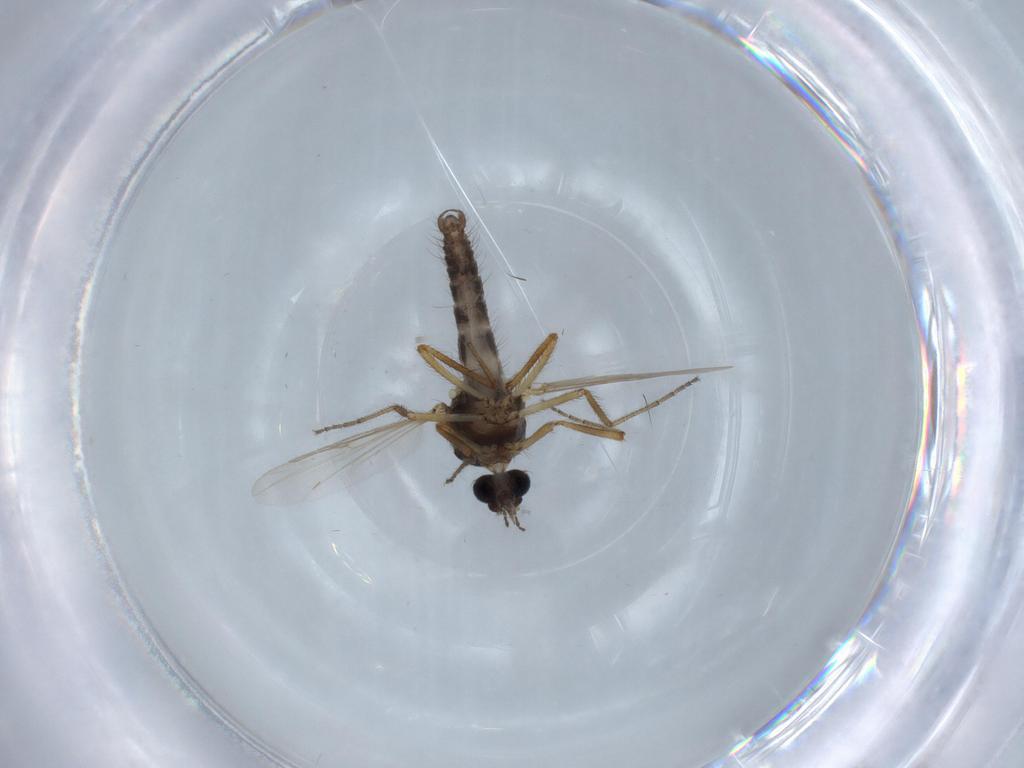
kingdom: Animalia
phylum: Arthropoda
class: Insecta
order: Diptera
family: Ceratopogonidae
